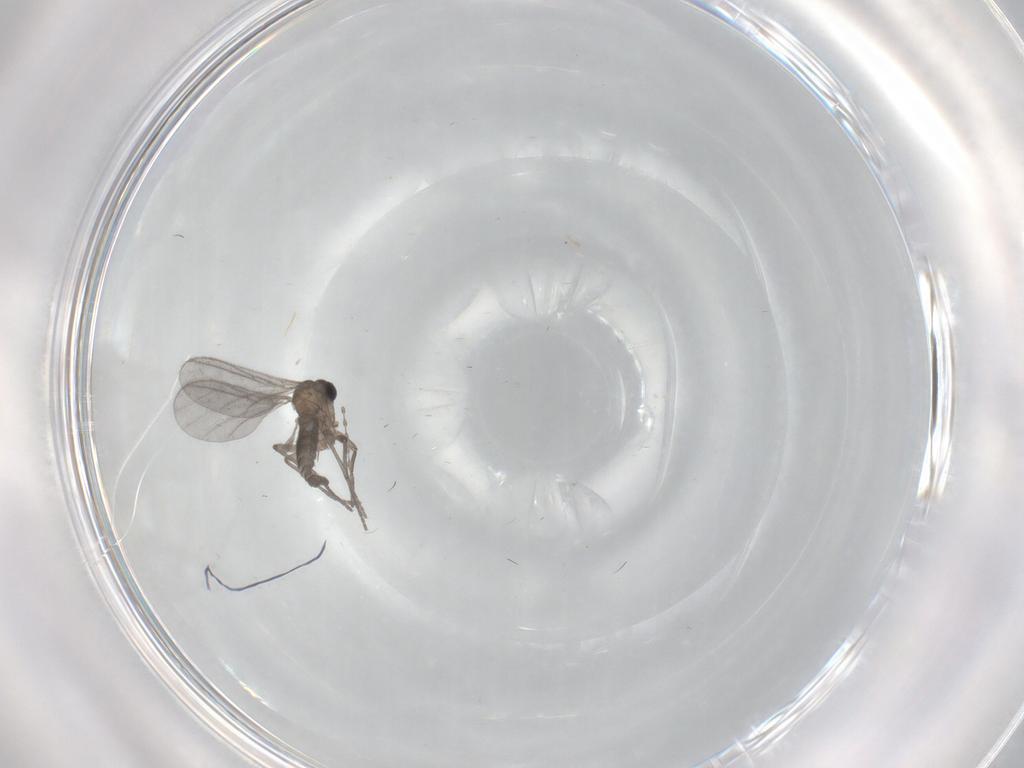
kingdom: Animalia
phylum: Arthropoda
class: Insecta
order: Diptera
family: Sciaridae
